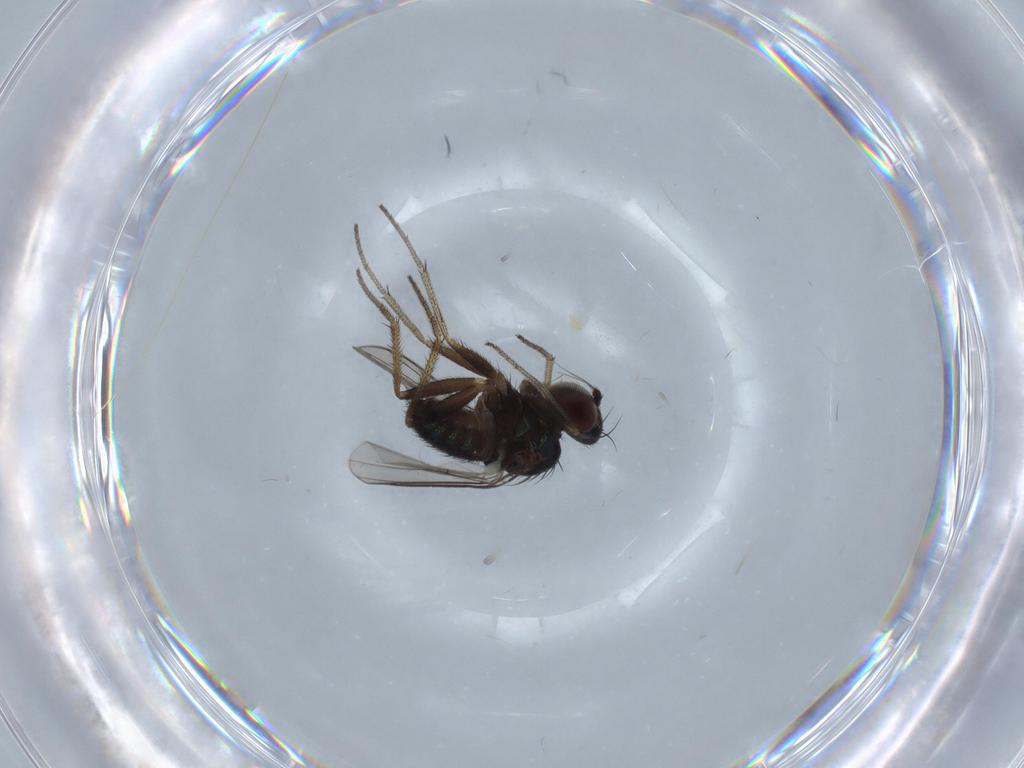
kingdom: Animalia
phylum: Arthropoda
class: Insecta
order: Diptera
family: Dolichopodidae
